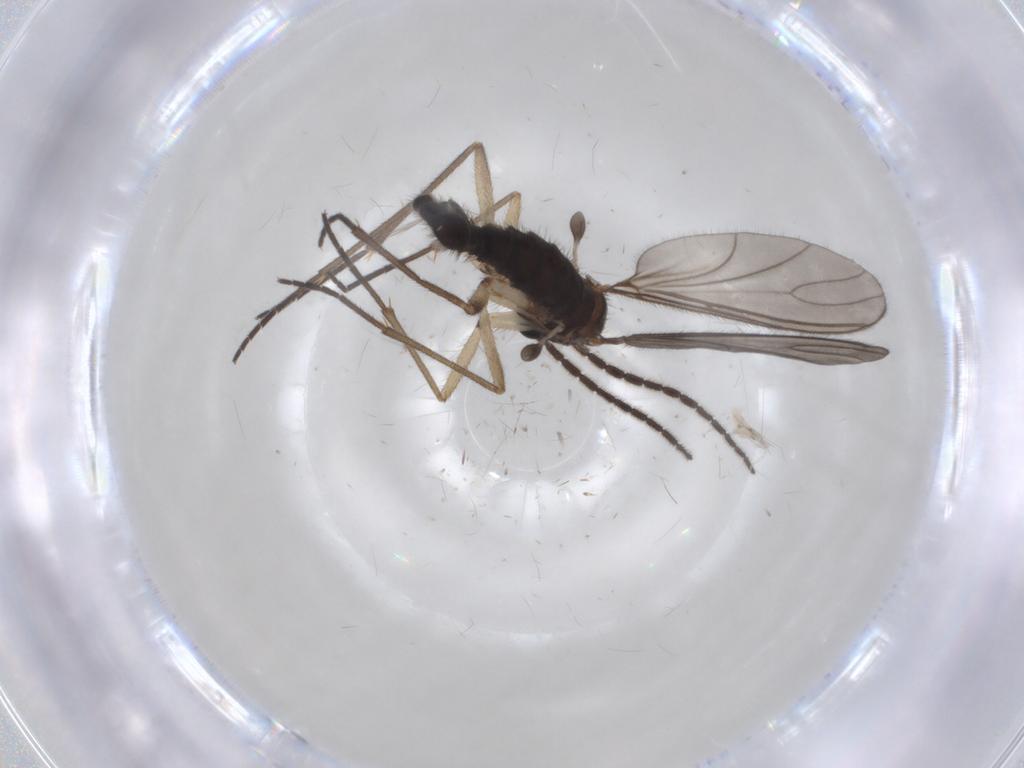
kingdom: Animalia
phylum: Arthropoda
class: Insecta
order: Diptera
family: Sciaridae
